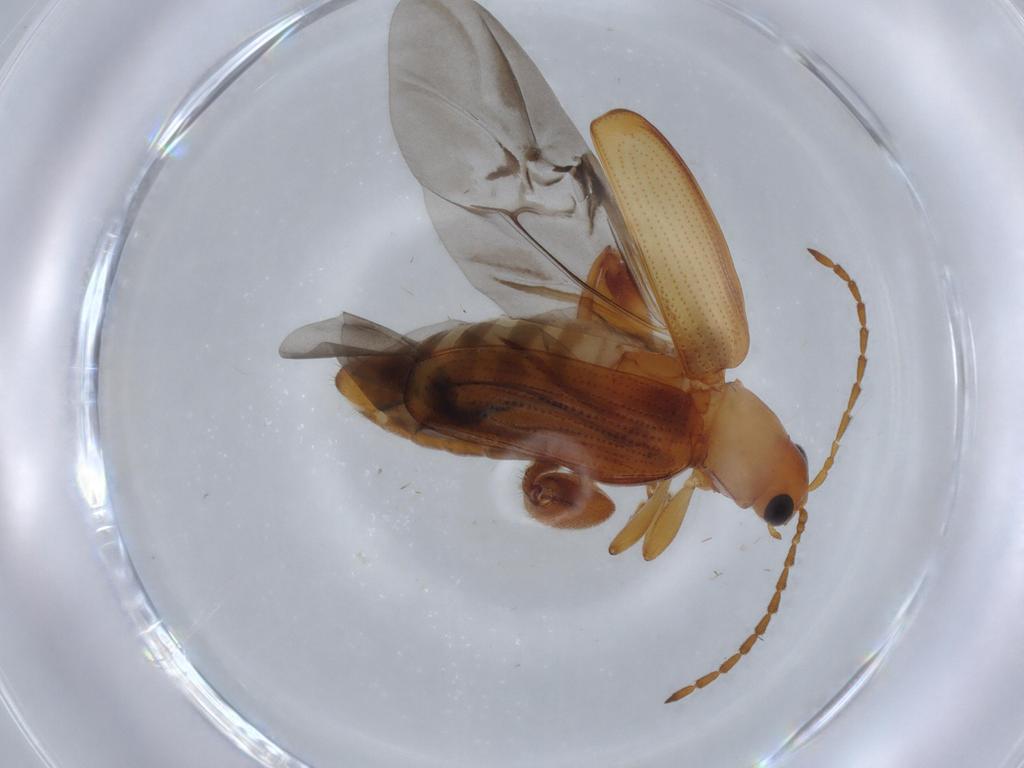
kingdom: Animalia
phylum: Arthropoda
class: Insecta
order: Coleoptera
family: Chrysomelidae
